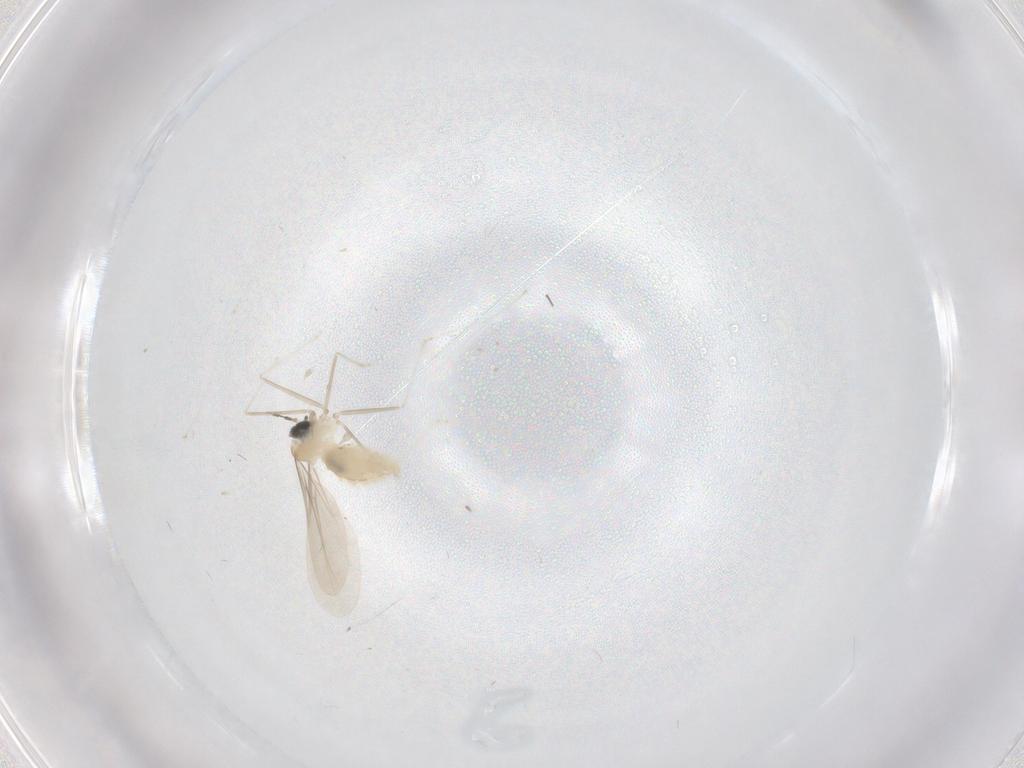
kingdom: Animalia
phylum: Arthropoda
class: Insecta
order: Diptera
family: Cecidomyiidae
